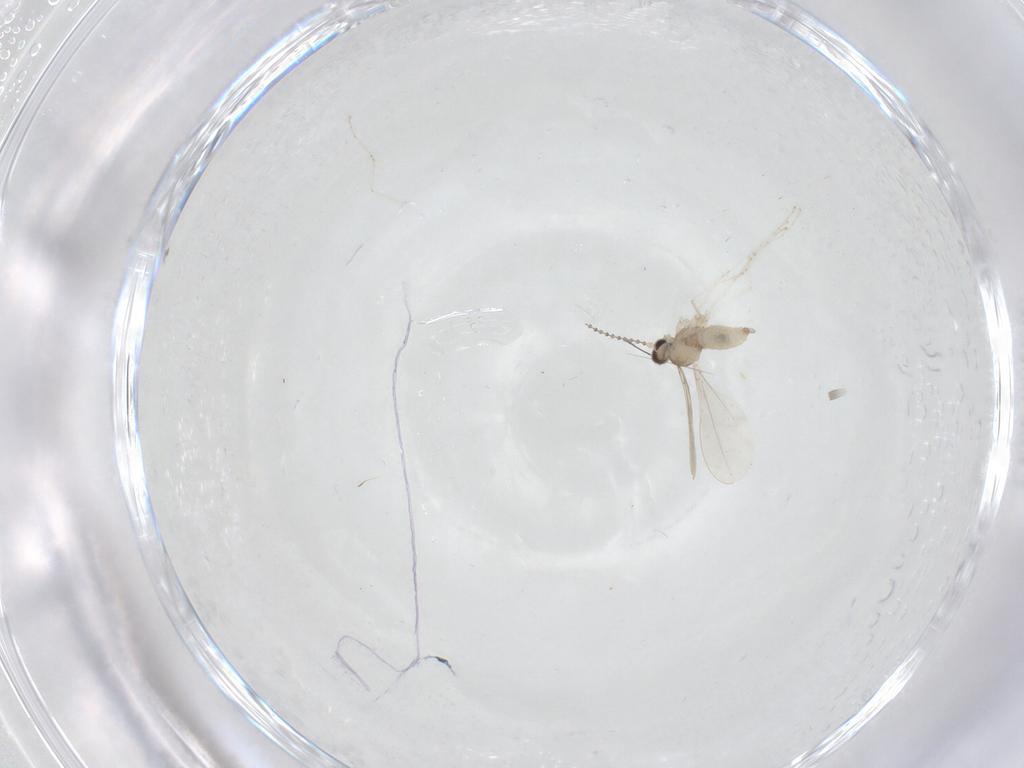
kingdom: Animalia
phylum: Arthropoda
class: Insecta
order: Diptera
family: Cecidomyiidae
